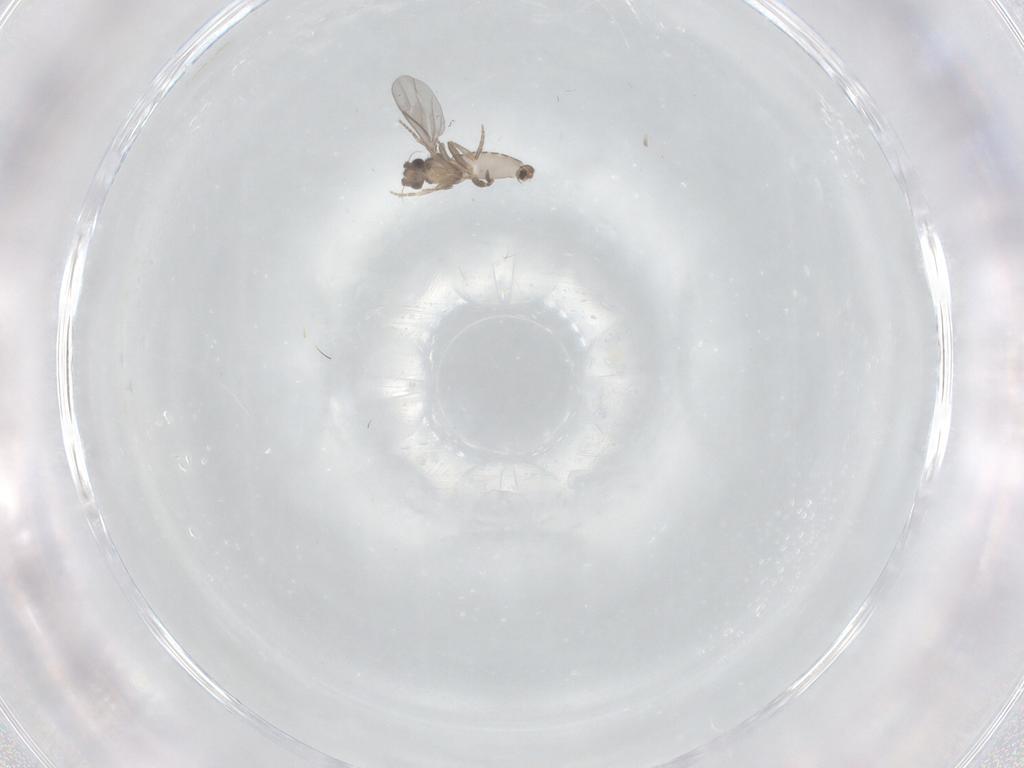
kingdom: Animalia
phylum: Arthropoda
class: Insecta
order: Diptera
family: Chironomidae
